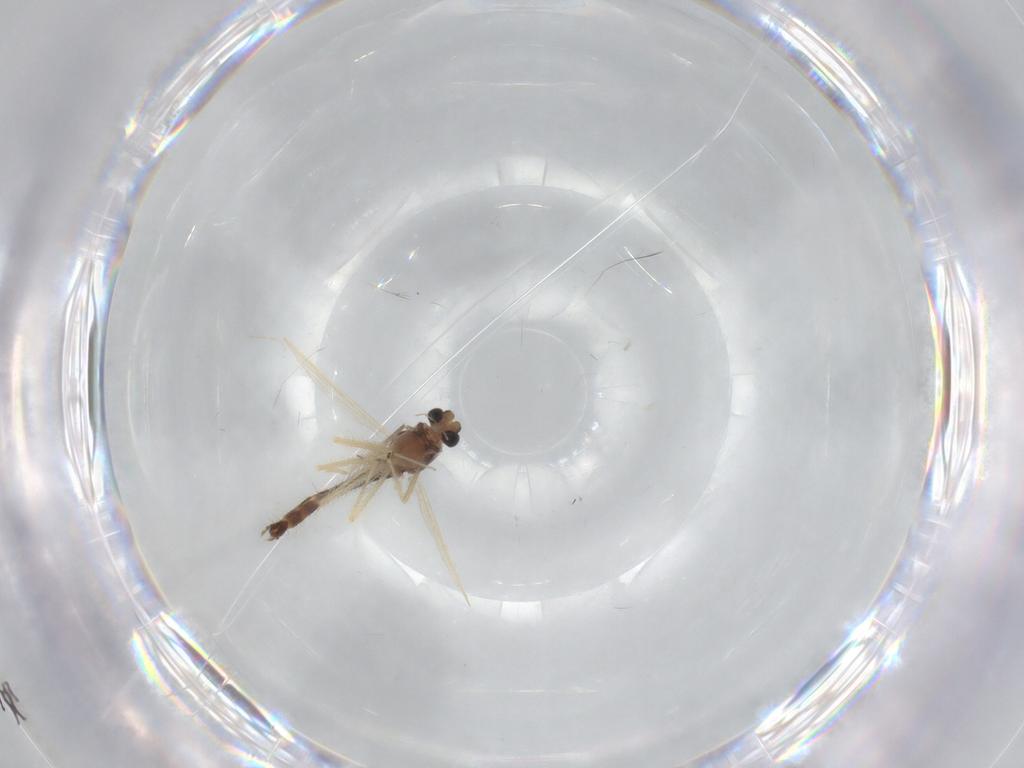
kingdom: Animalia
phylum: Arthropoda
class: Insecta
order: Diptera
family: Chironomidae
